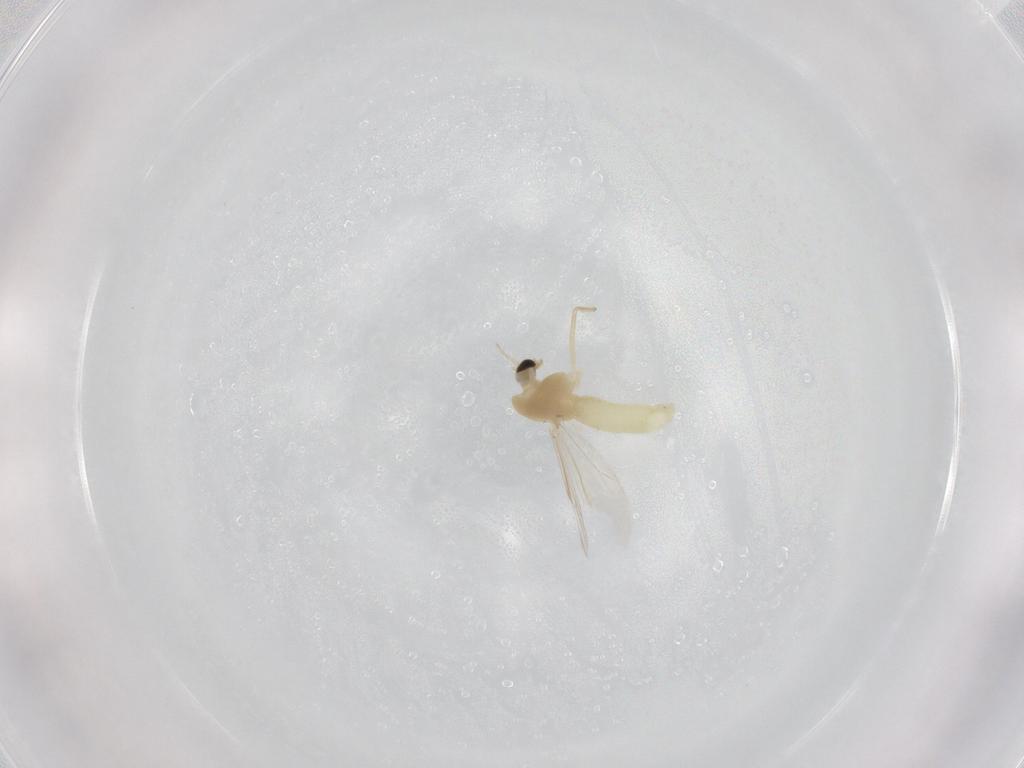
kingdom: Animalia
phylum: Arthropoda
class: Insecta
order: Diptera
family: Chironomidae
